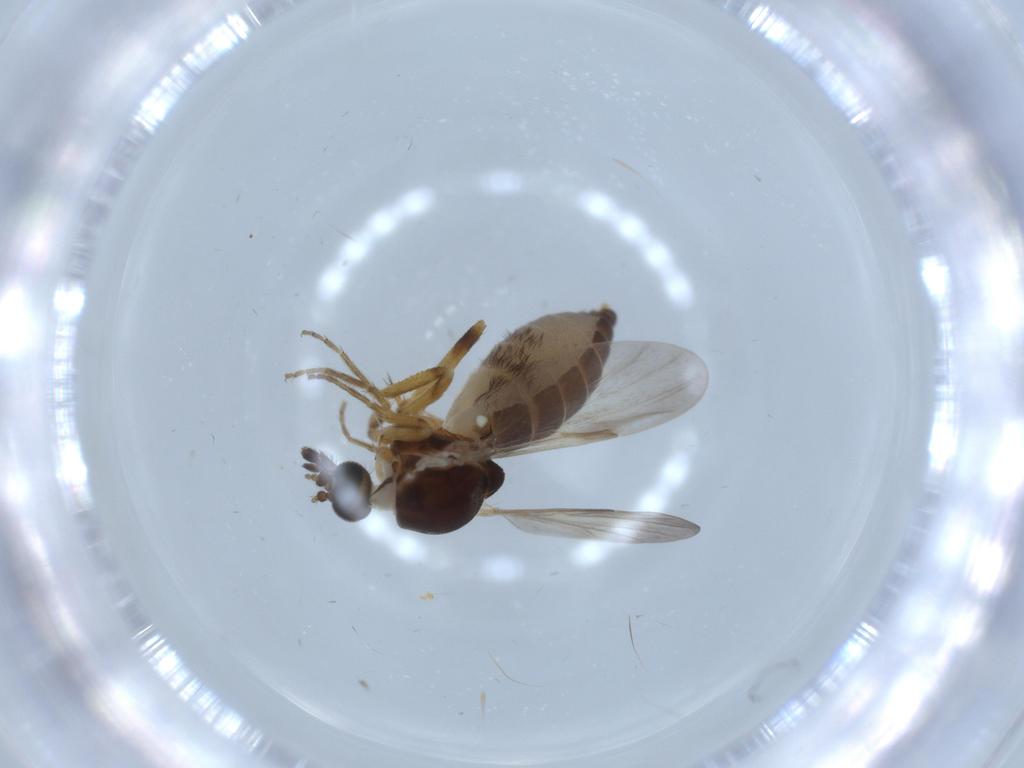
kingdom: Animalia
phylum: Arthropoda
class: Insecta
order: Diptera
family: Ceratopogonidae
